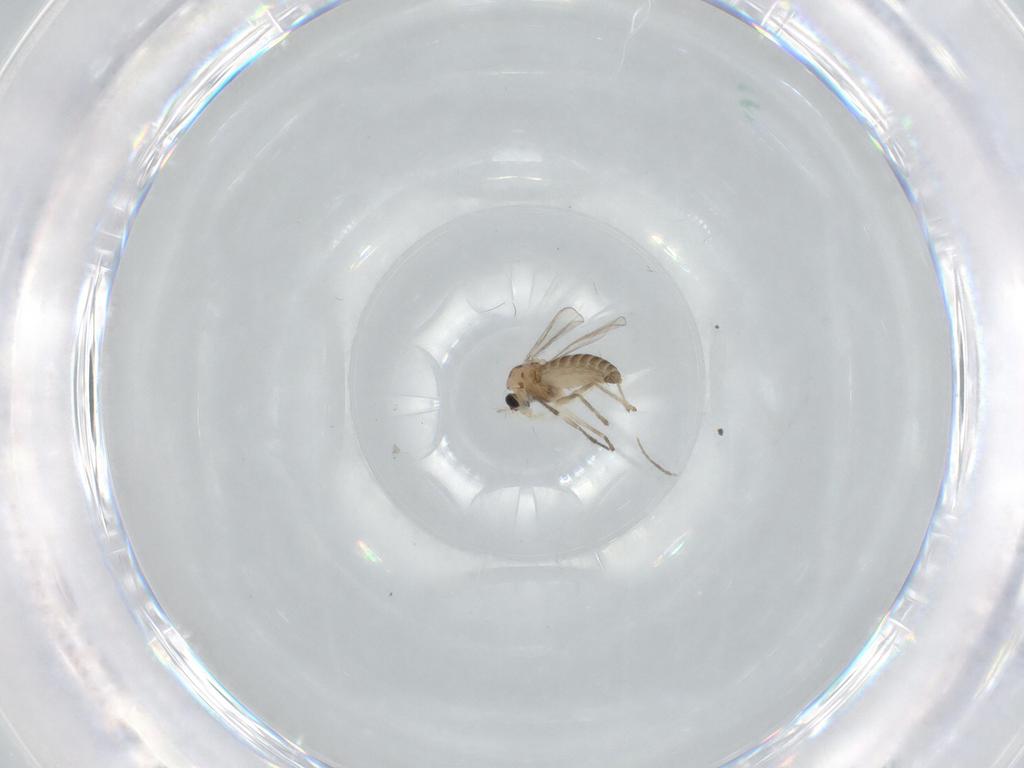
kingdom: Animalia
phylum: Arthropoda
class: Insecta
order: Diptera
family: Chironomidae
